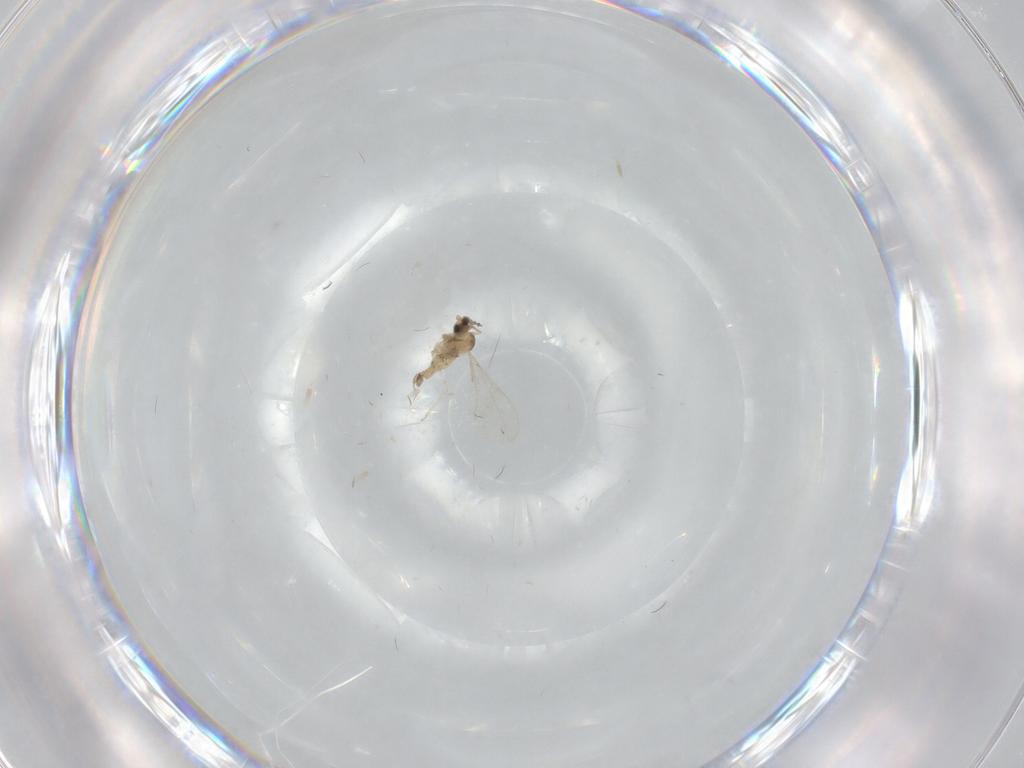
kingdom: Animalia
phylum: Arthropoda
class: Insecta
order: Diptera
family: Cecidomyiidae
